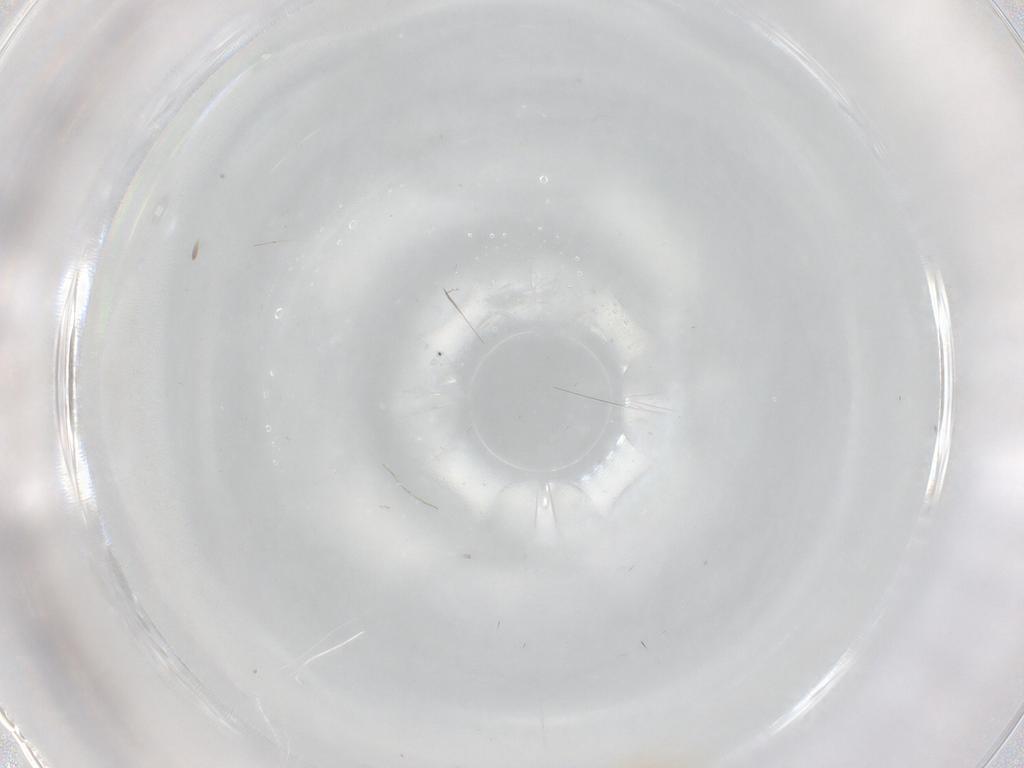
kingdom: Animalia
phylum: Arthropoda
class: Insecta
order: Diptera
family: Cecidomyiidae
